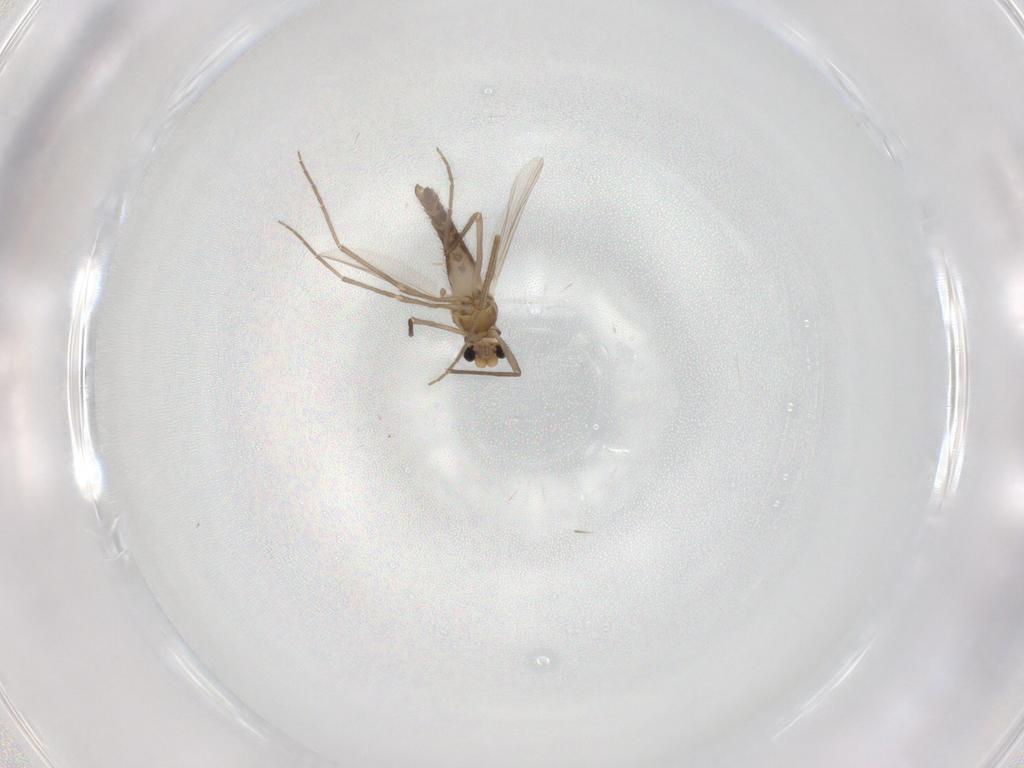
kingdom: Animalia
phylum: Arthropoda
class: Insecta
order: Diptera
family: Chironomidae
